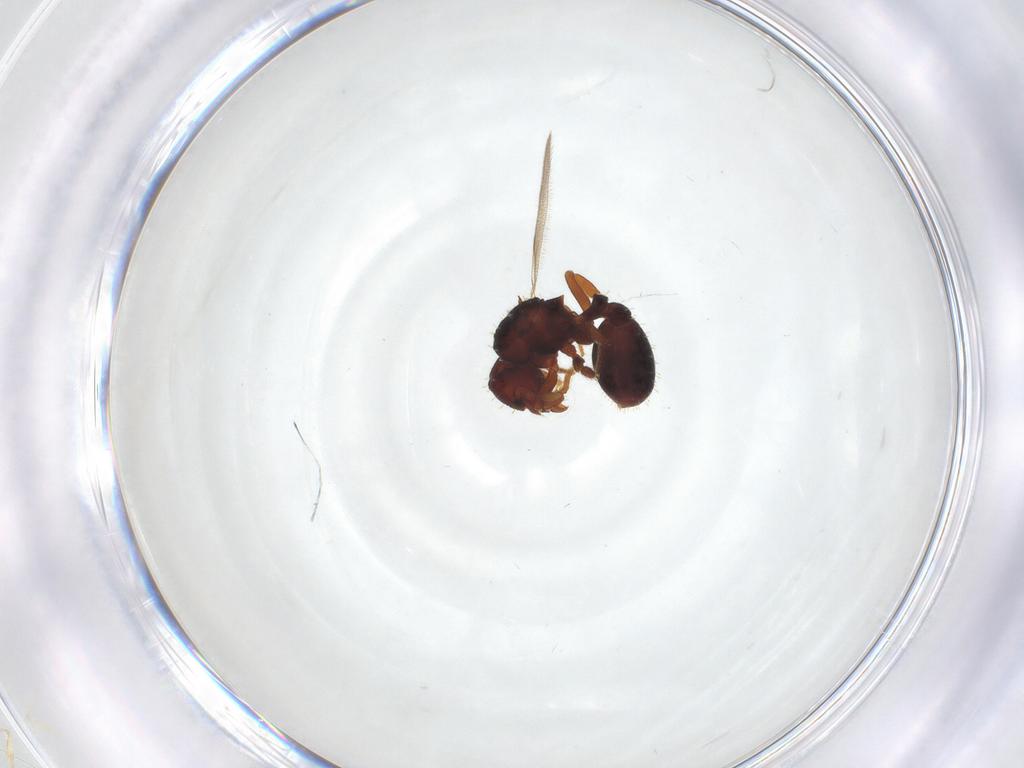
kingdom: Animalia
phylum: Arthropoda
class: Insecta
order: Hymenoptera
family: Formicidae
